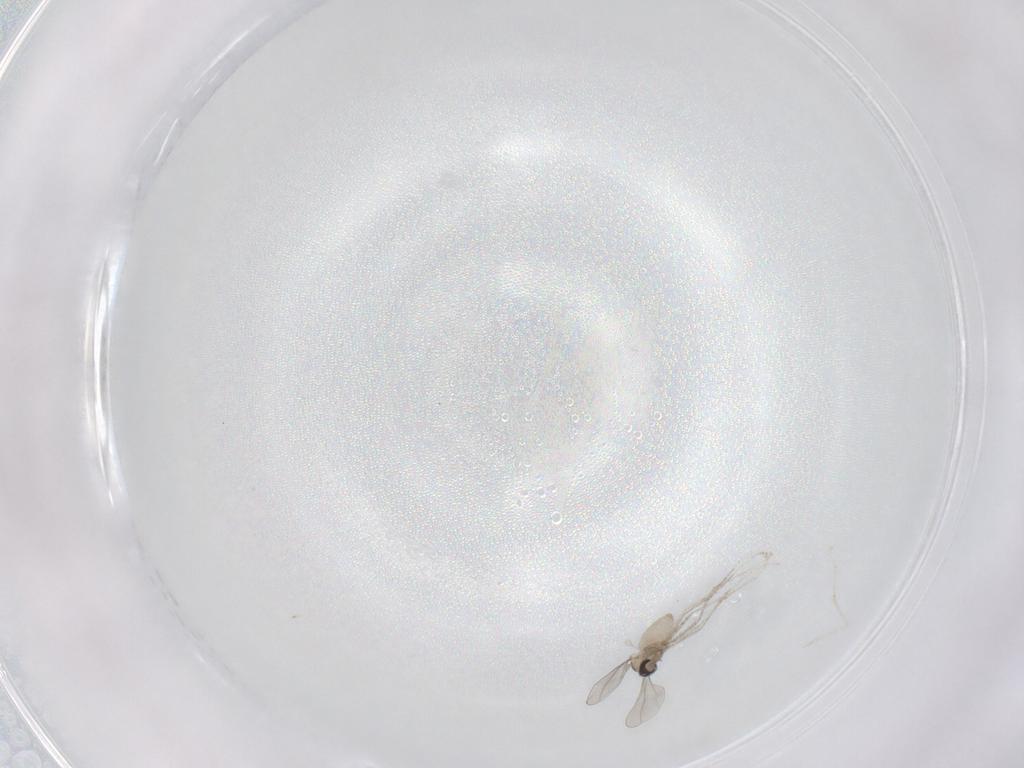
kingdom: Animalia
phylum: Arthropoda
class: Insecta
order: Diptera
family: Cecidomyiidae
